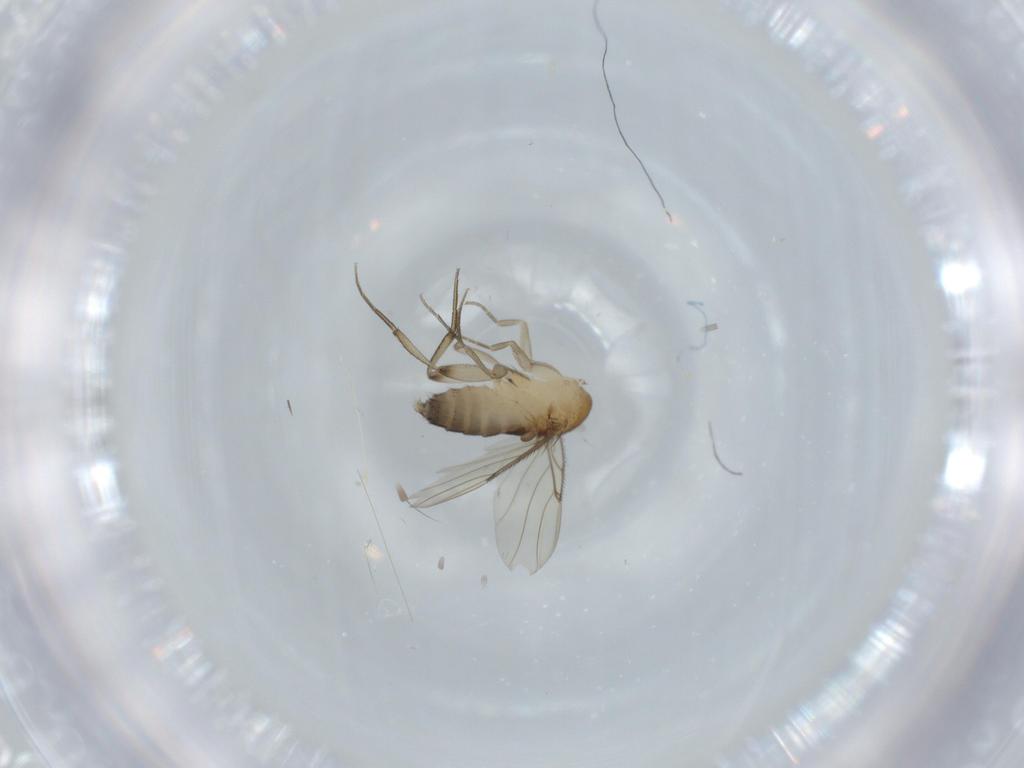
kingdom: Animalia
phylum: Arthropoda
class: Insecta
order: Diptera
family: Phoridae
